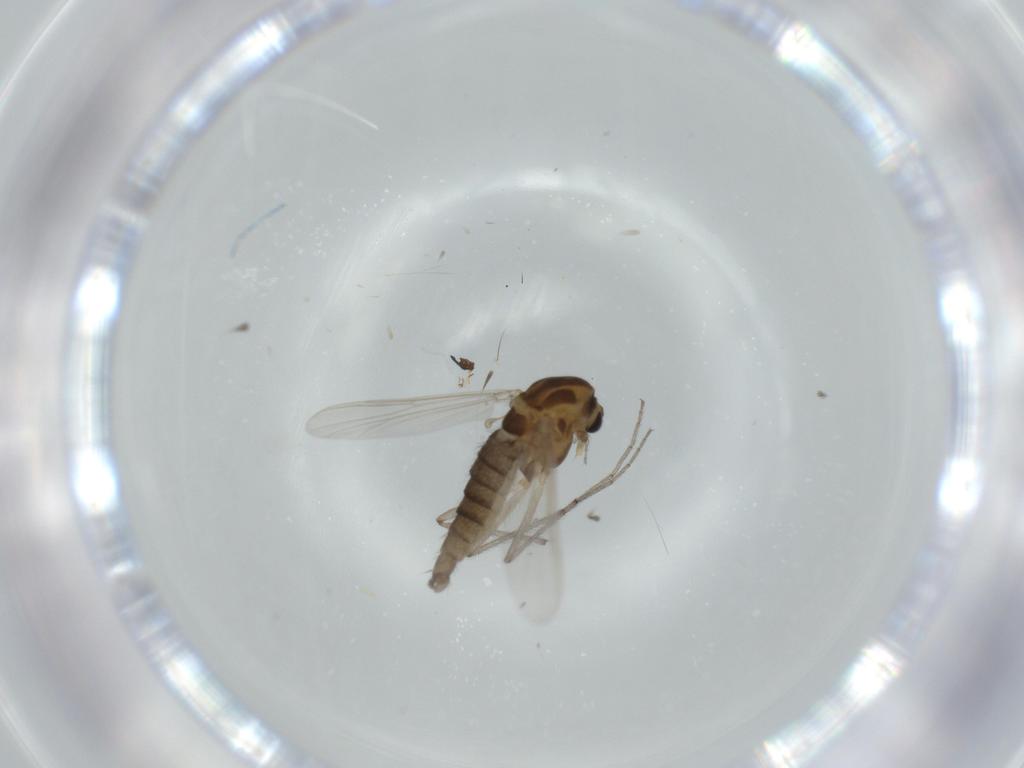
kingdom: Animalia
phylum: Arthropoda
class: Insecta
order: Diptera
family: Chironomidae
